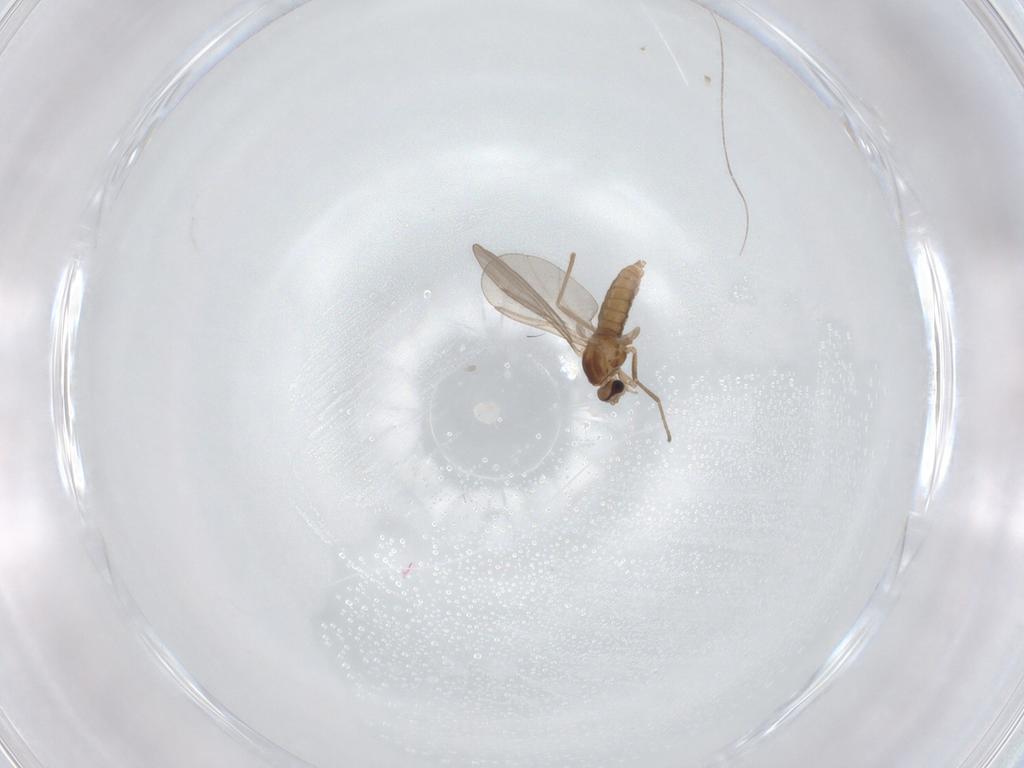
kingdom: Animalia
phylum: Arthropoda
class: Insecta
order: Diptera
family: Cecidomyiidae
